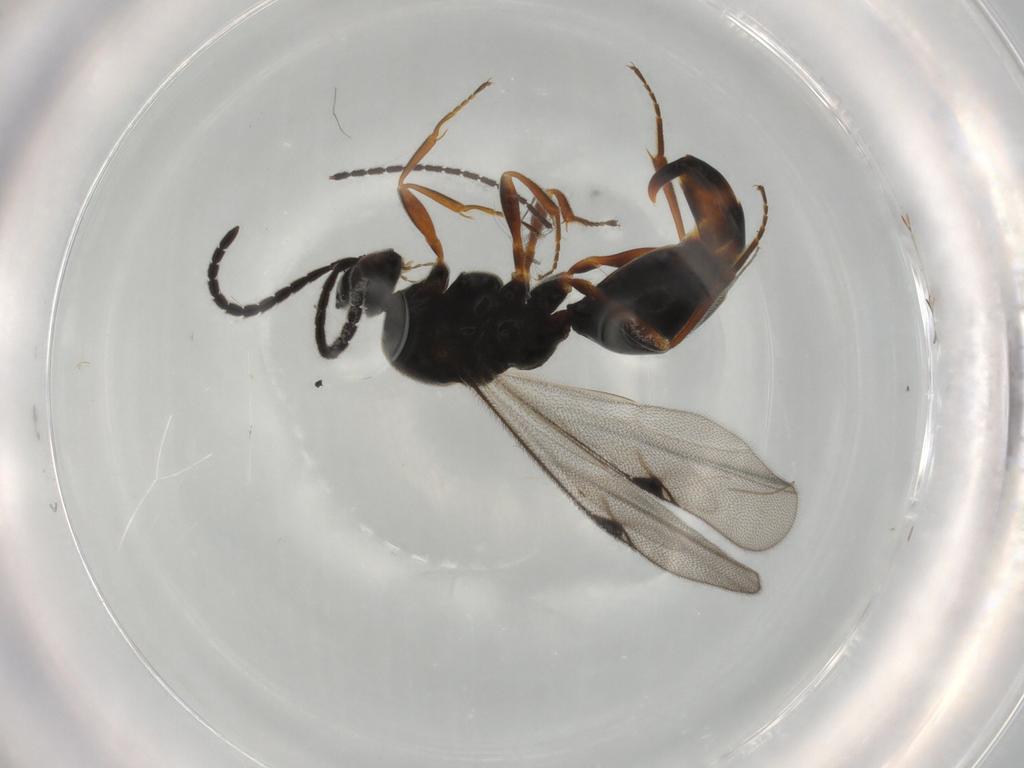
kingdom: Animalia
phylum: Arthropoda
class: Insecta
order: Hymenoptera
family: Proctotrupidae
